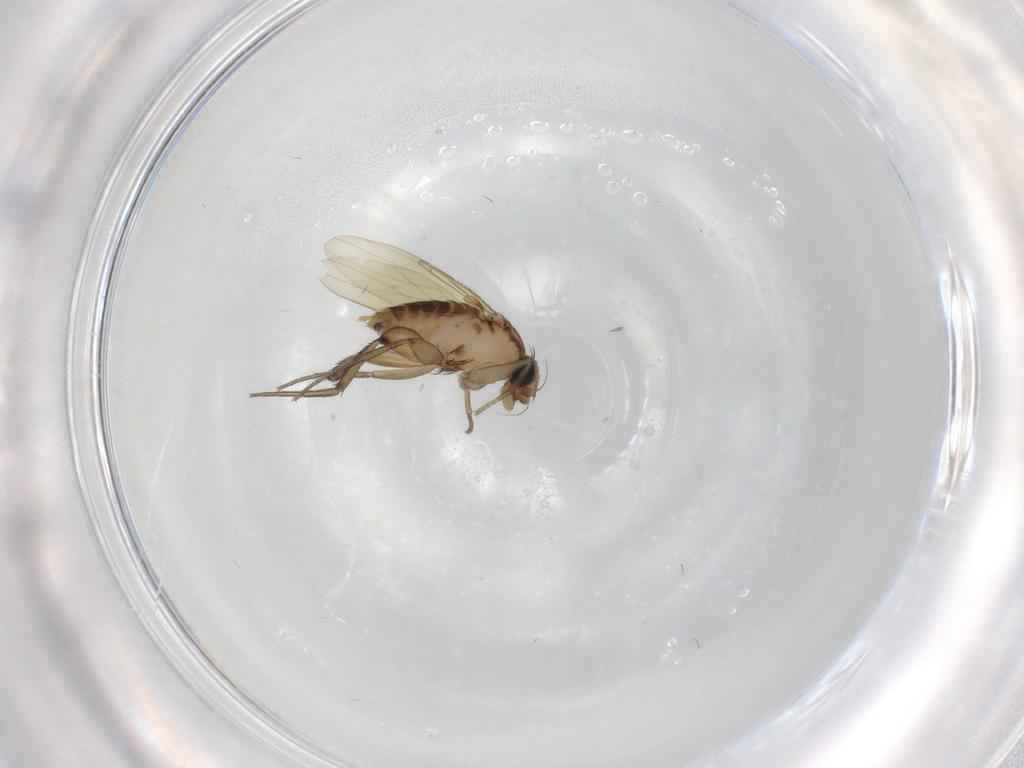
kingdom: Animalia
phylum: Arthropoda
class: Insecta
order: Diptera
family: Phoridae
